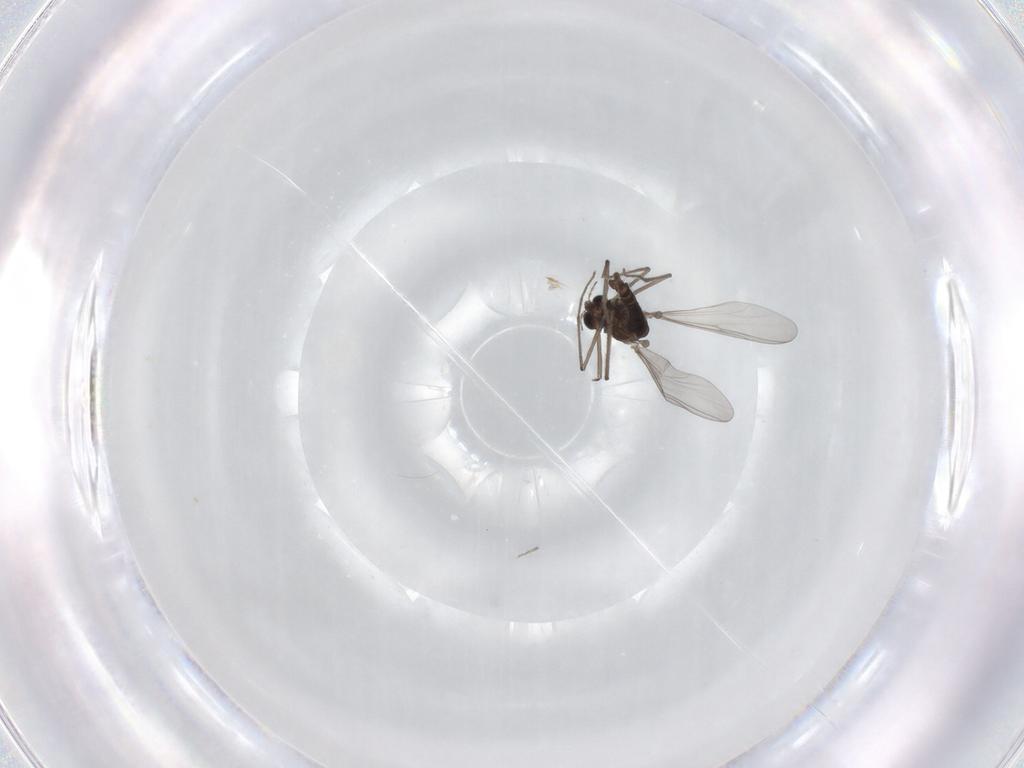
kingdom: Animalia
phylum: Arthropoda
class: Insecta
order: Diptera
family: Chironomidae
